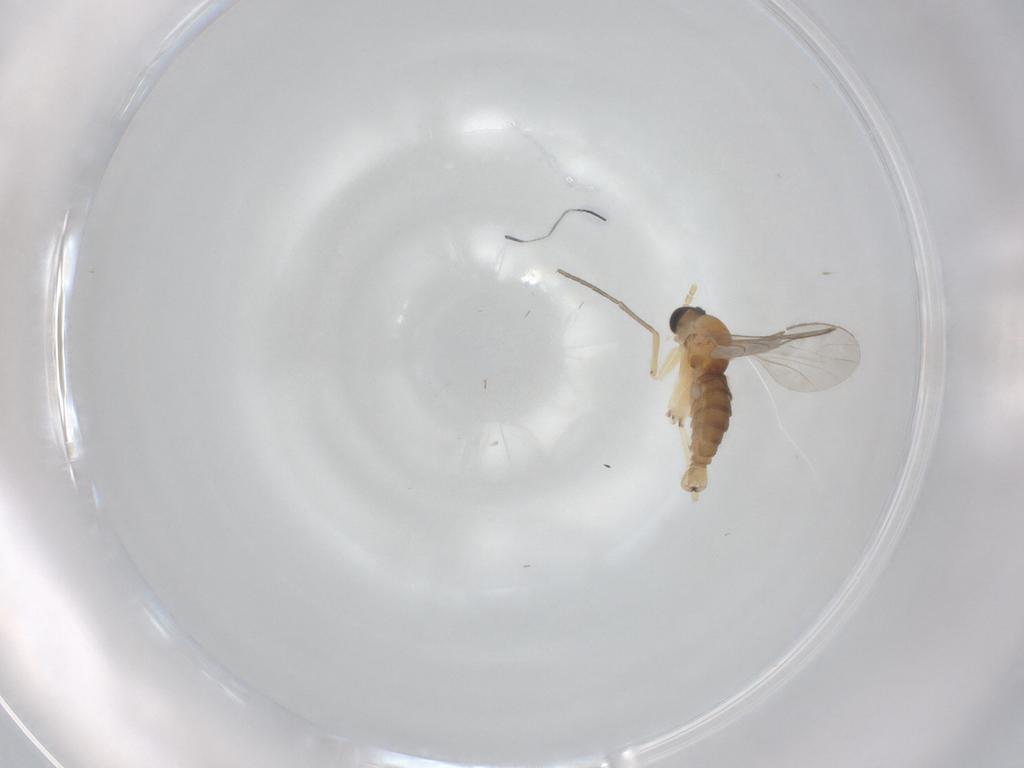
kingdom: Animalia
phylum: Arthropoda
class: Insecta
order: Diptera
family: Sciaridae
